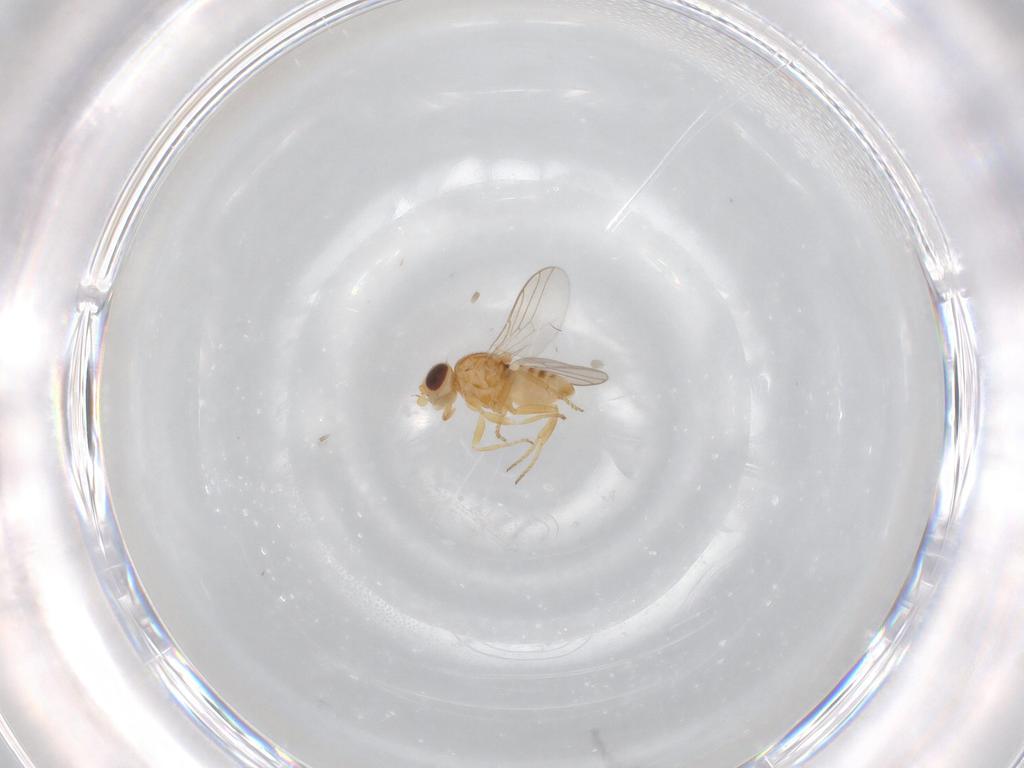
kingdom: Animalia
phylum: Arthropoda
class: Insecta
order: Diptera
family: Chloropidae
